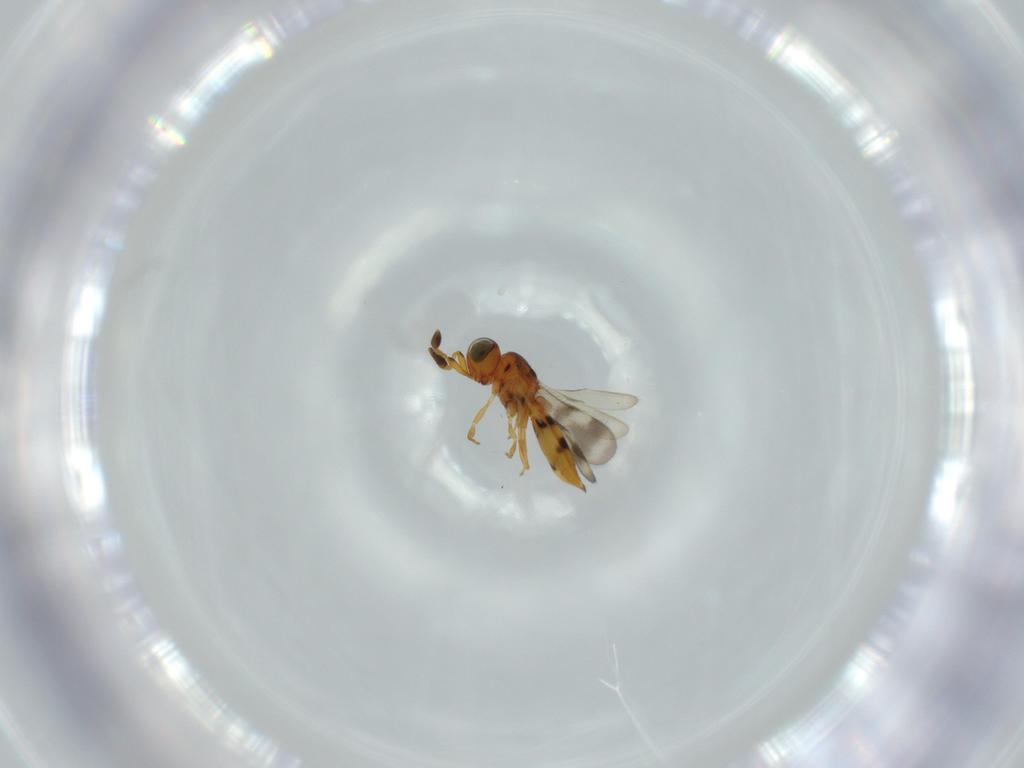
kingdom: Animalia
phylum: Arthropoda
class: Insecta
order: Hymenoptera
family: Scelionidae
